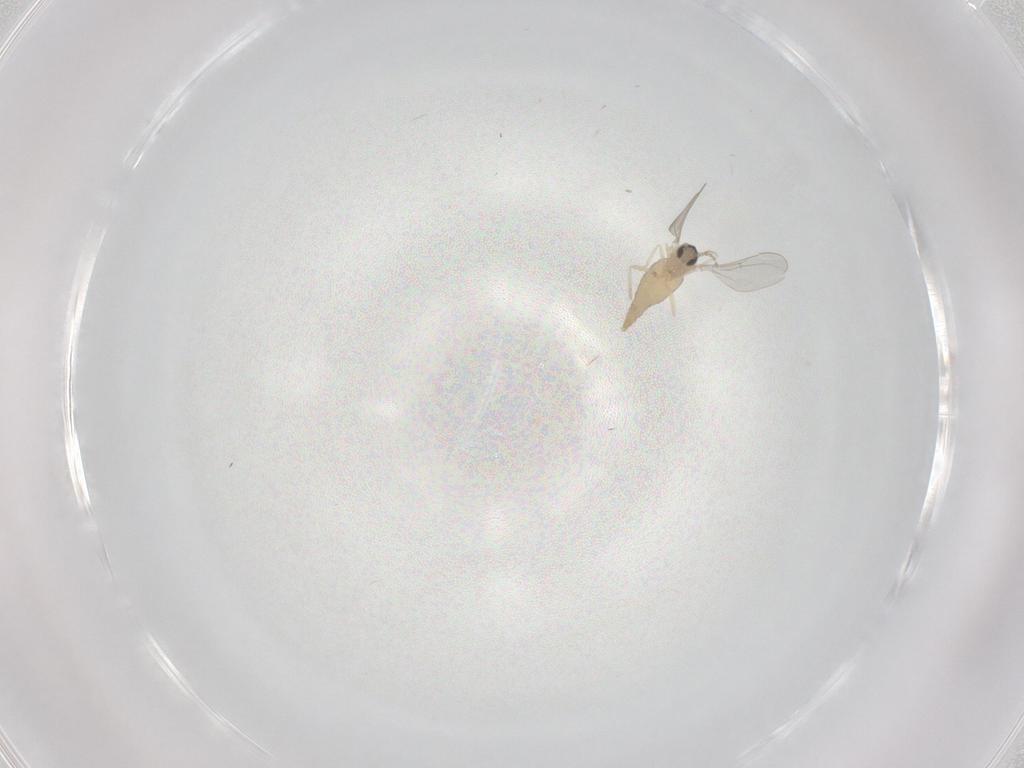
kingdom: Animalia
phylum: Arthropoda
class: Insecta
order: Diptera
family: Cecidomyiidae
